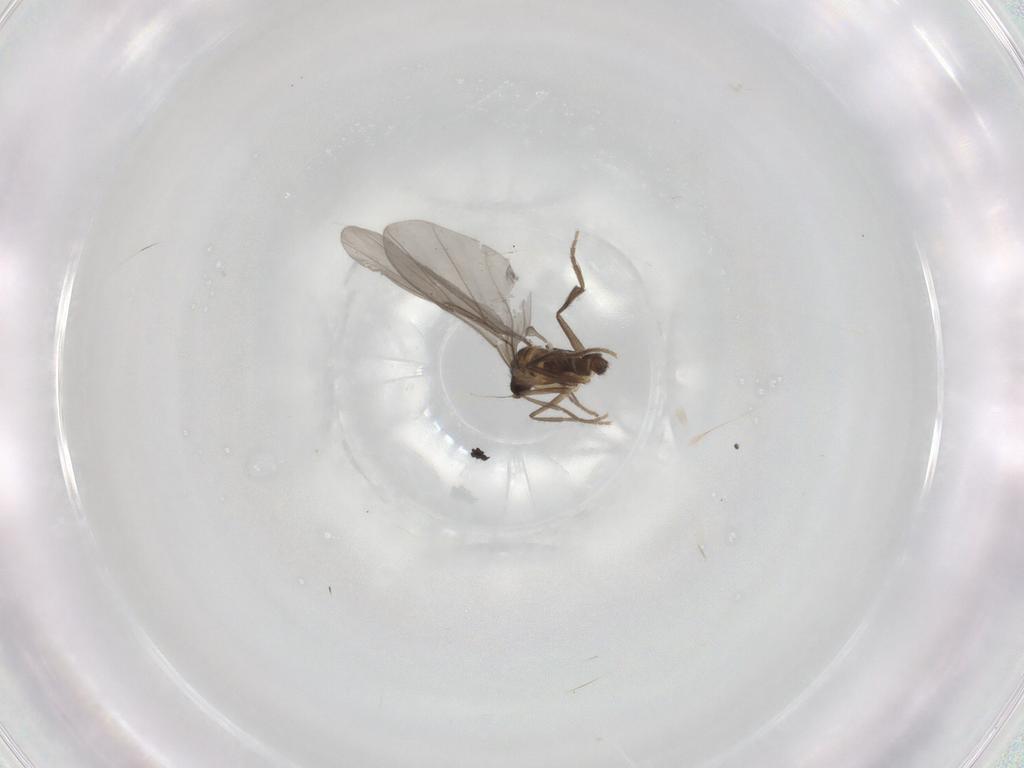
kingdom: Animalia
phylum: Arthropoda
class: Insecta
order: Diptera
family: Phoridae
